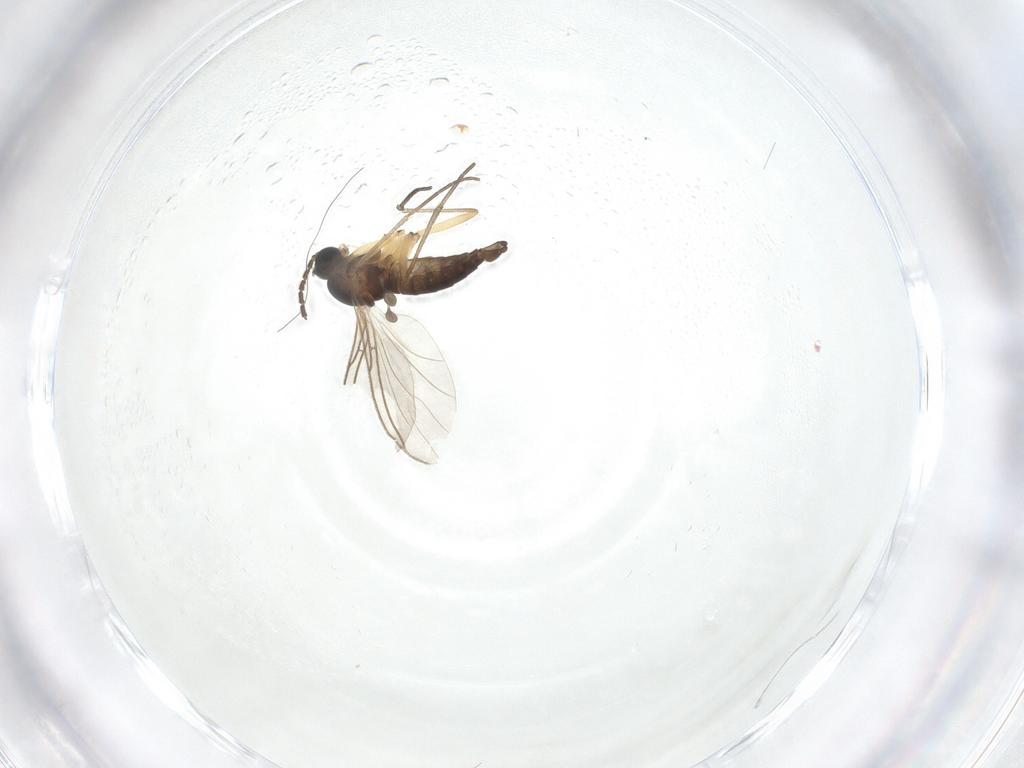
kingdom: Animalia
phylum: Arthropoda
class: Insecta
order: Diptera
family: Sciaridae
